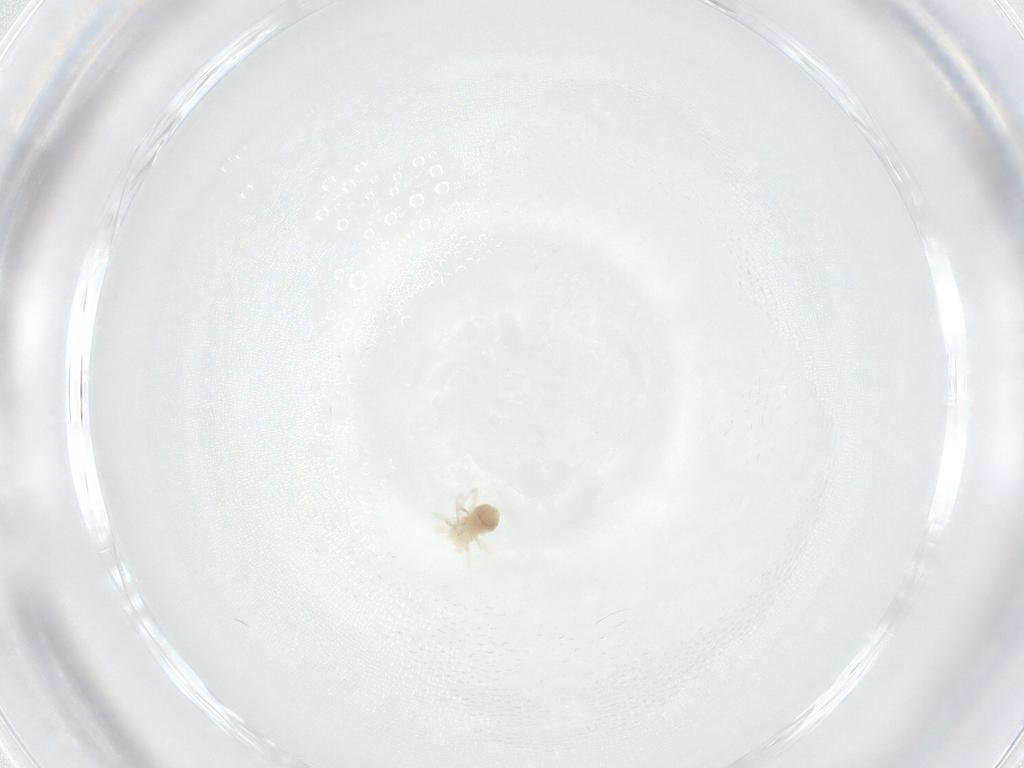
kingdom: Animalia
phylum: Arthropoda
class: Arachnida
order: Trombidiformes
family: Anystidae
